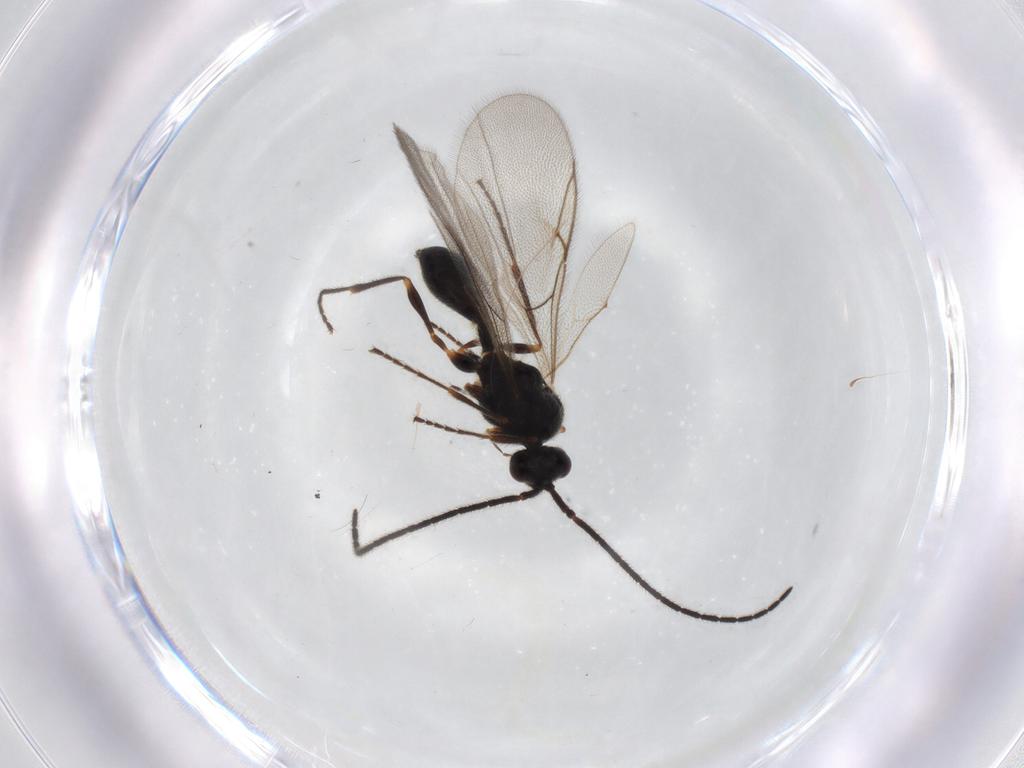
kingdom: Animalia
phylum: Arthropoda
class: Insecta
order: Hymenoptera
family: Diapriidae
